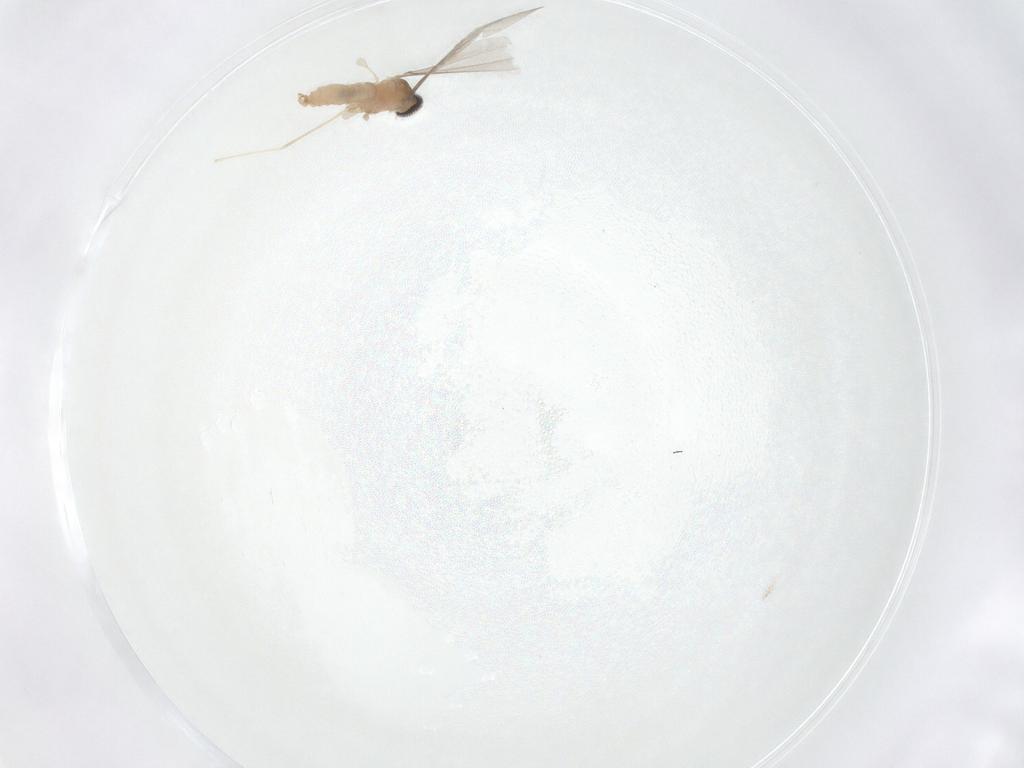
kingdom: Animalia
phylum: Arthropoda
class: Insecta
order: Diptera
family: Cecidomyiidae
